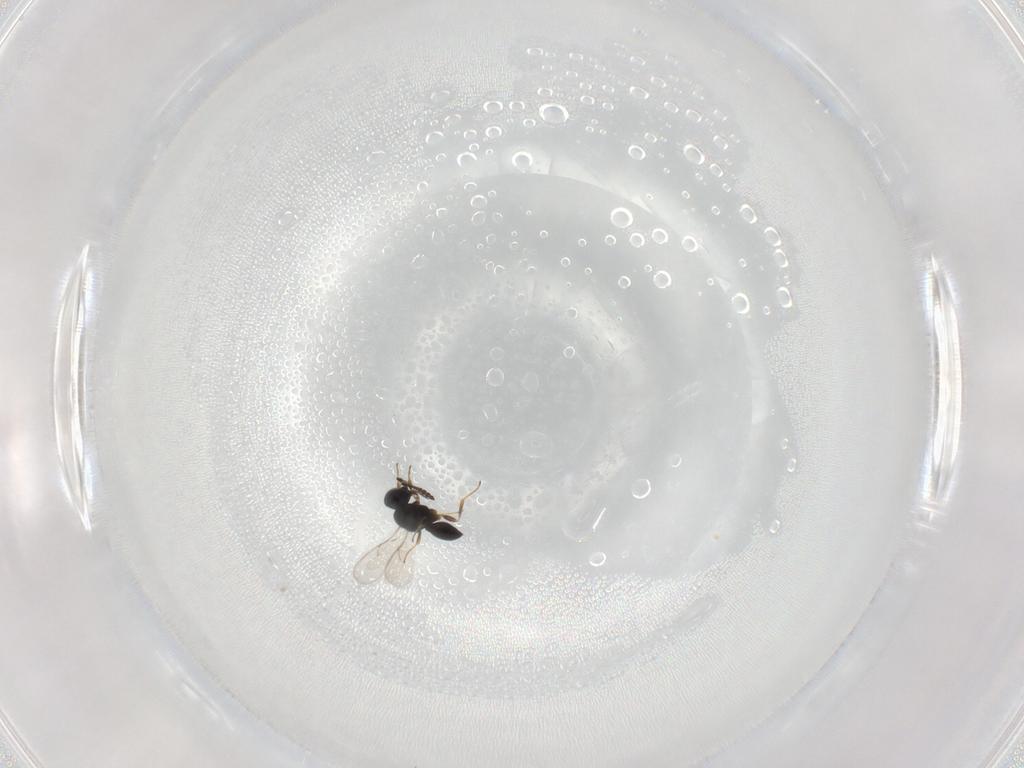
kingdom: Animalia
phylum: Arthropoda
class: Insecta
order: Hymenoptera
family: Scelionidae
